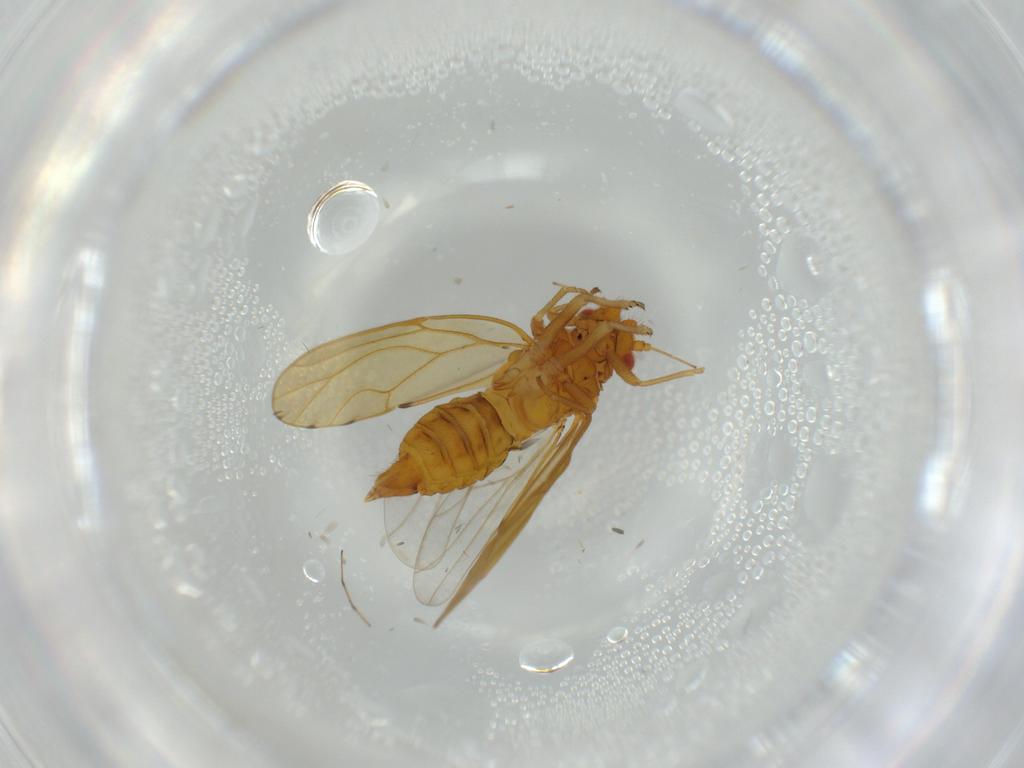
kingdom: Animalia
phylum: Arthropoda
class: Insecta
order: Hemiptera
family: Psylloidea_incertae_sedis
